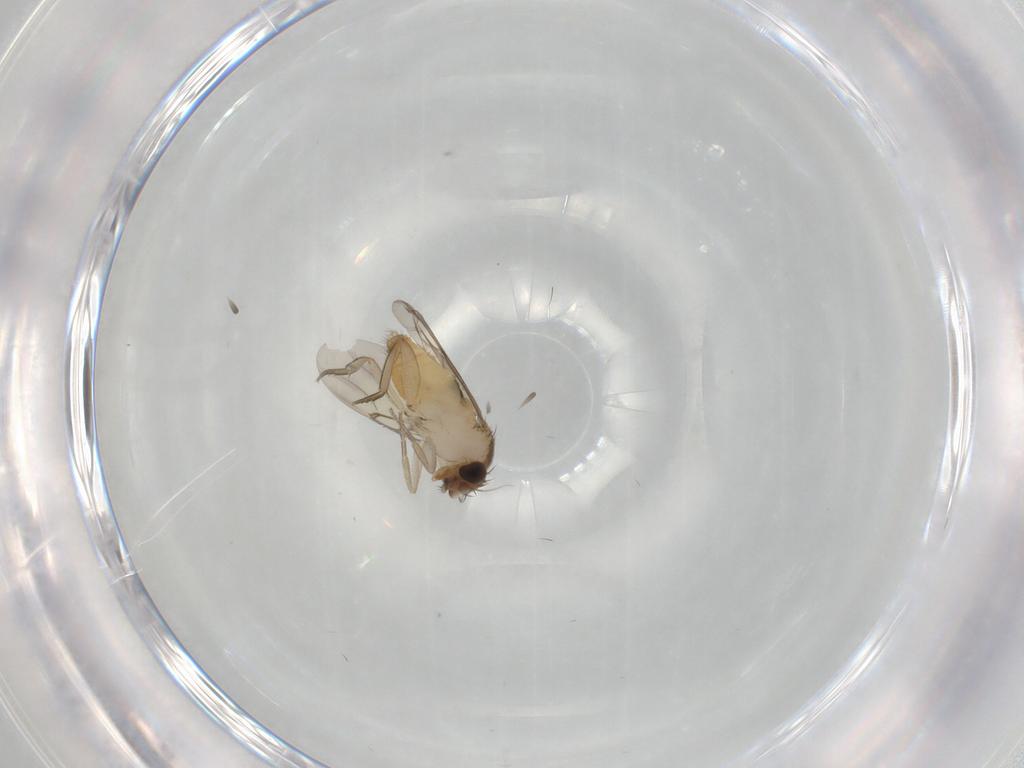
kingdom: Animalia
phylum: Arthropoda
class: Insecta
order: Diptera
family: Phoridae
